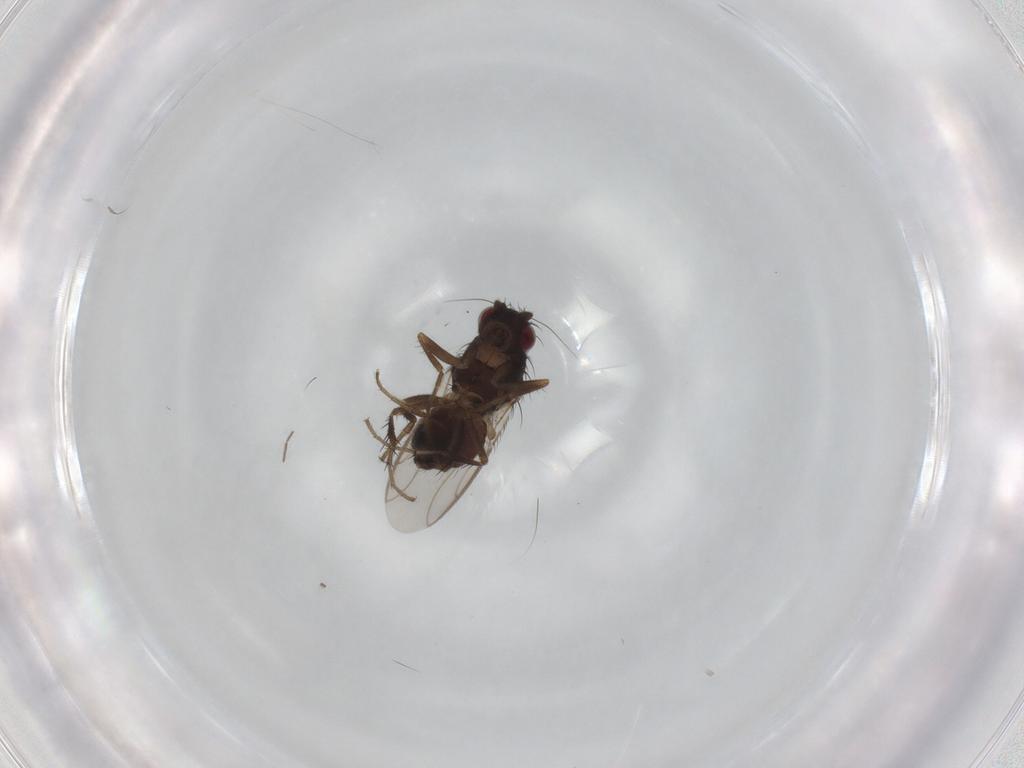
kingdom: Animalia
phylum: Arthropoda
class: Insecta
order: Diptera
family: Sphaeroceridae
